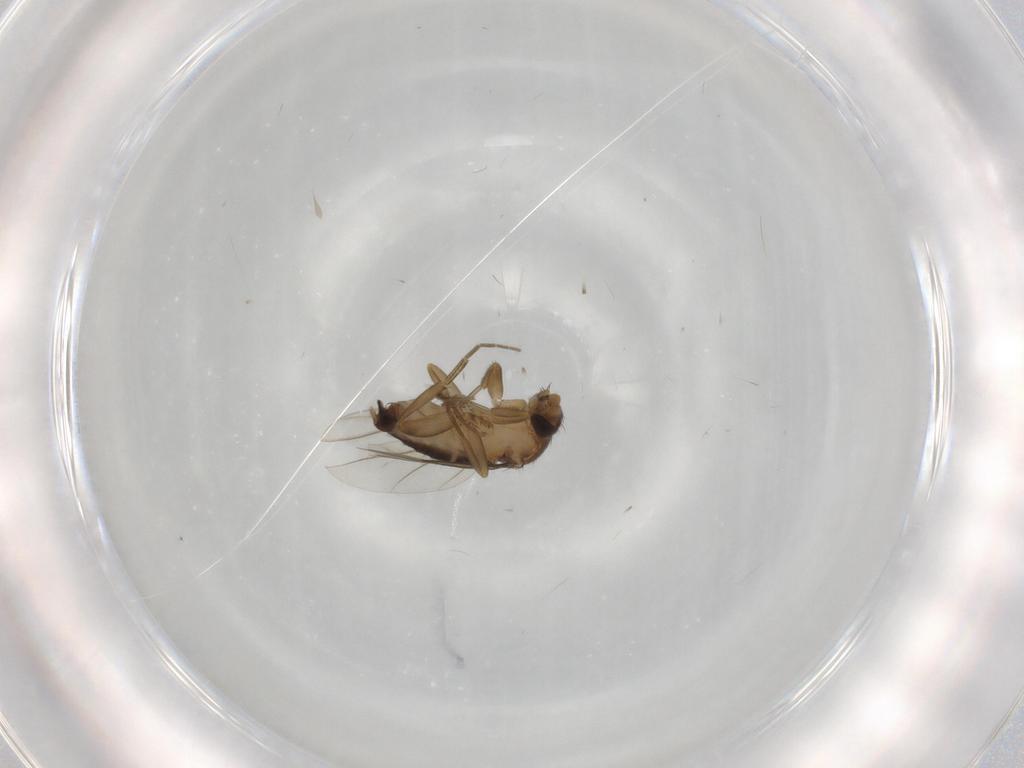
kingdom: Animalia
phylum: Arthropoda
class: Insecta
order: Diptera
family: Phoridae
